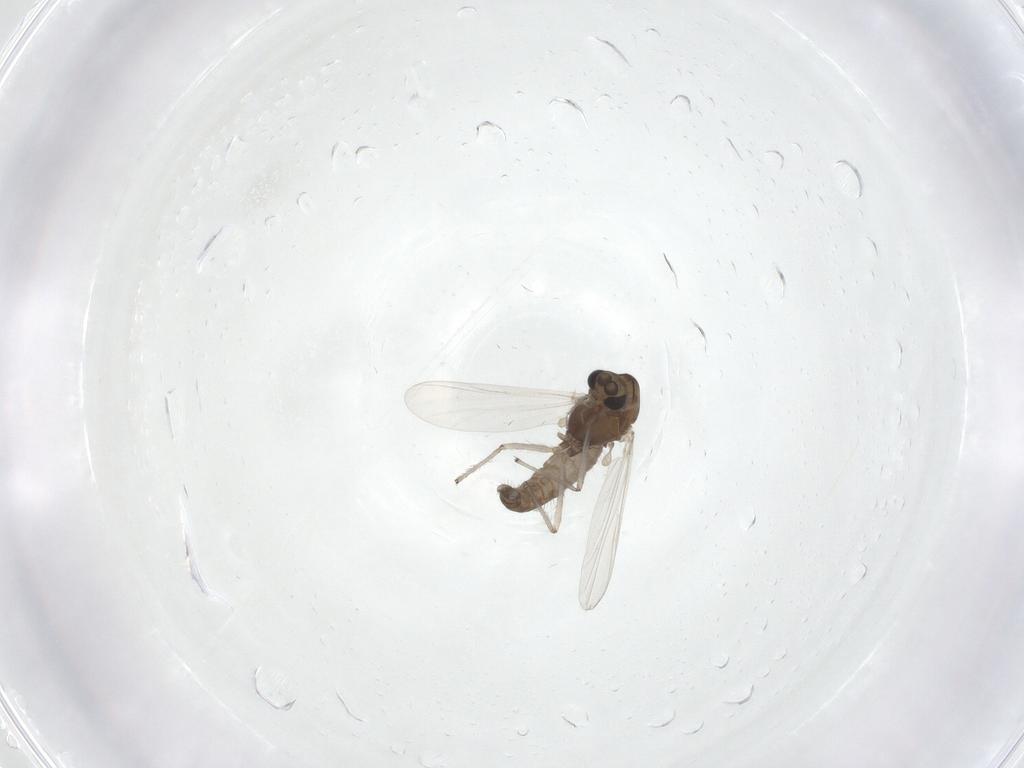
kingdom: Animalia
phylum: Arthropoda
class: Insecta
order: Diptera
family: Chironomidae
